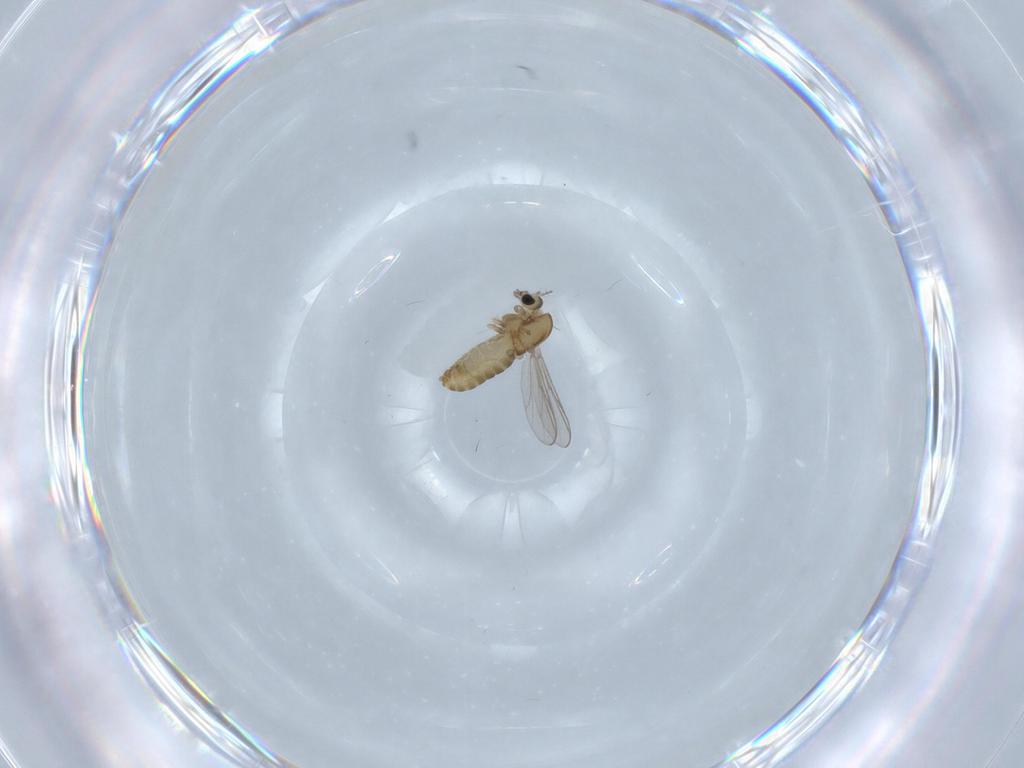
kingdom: Animalia
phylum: Arthropoda
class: Insecta
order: Diptera
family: Chironomidae
